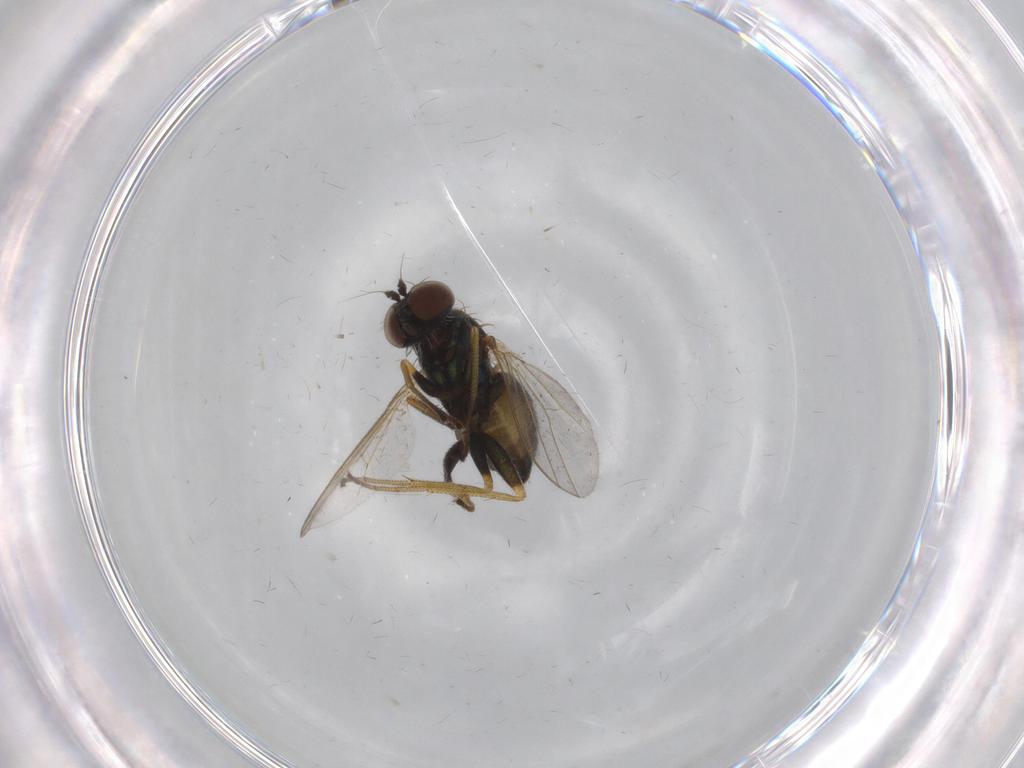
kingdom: Animalia
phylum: Arthropoda
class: Insecta
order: Diptera
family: Dolichopodidae
